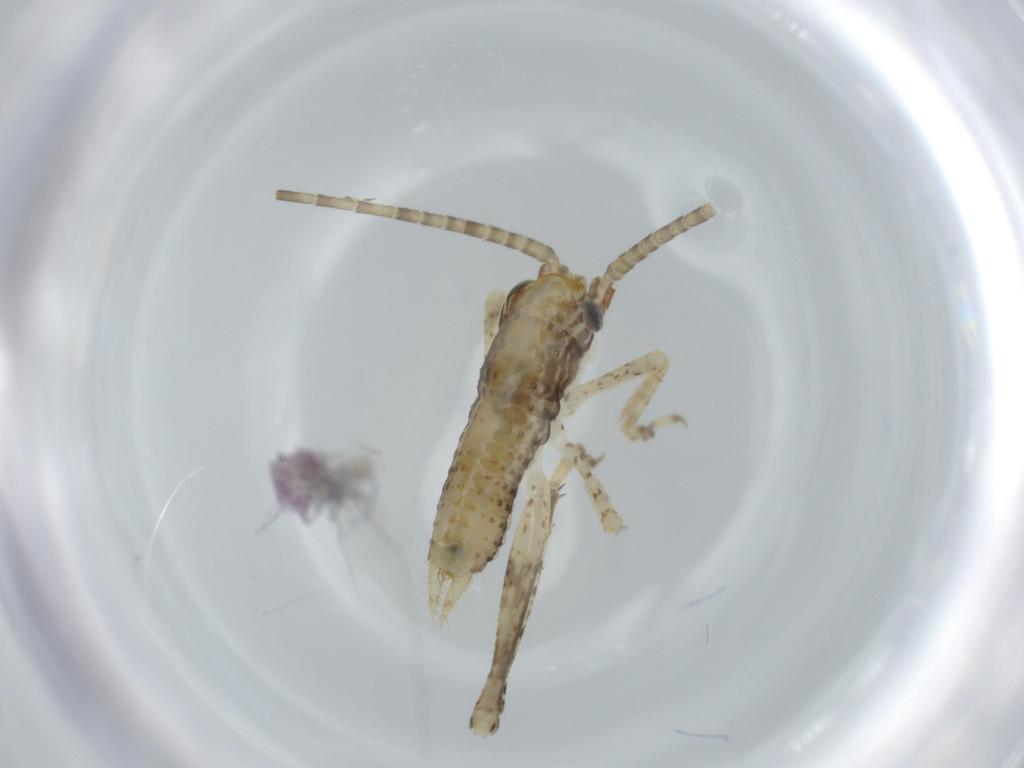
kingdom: Animalia
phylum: Arthropoda
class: Insecta
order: Orthoptera
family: Gryllidae
